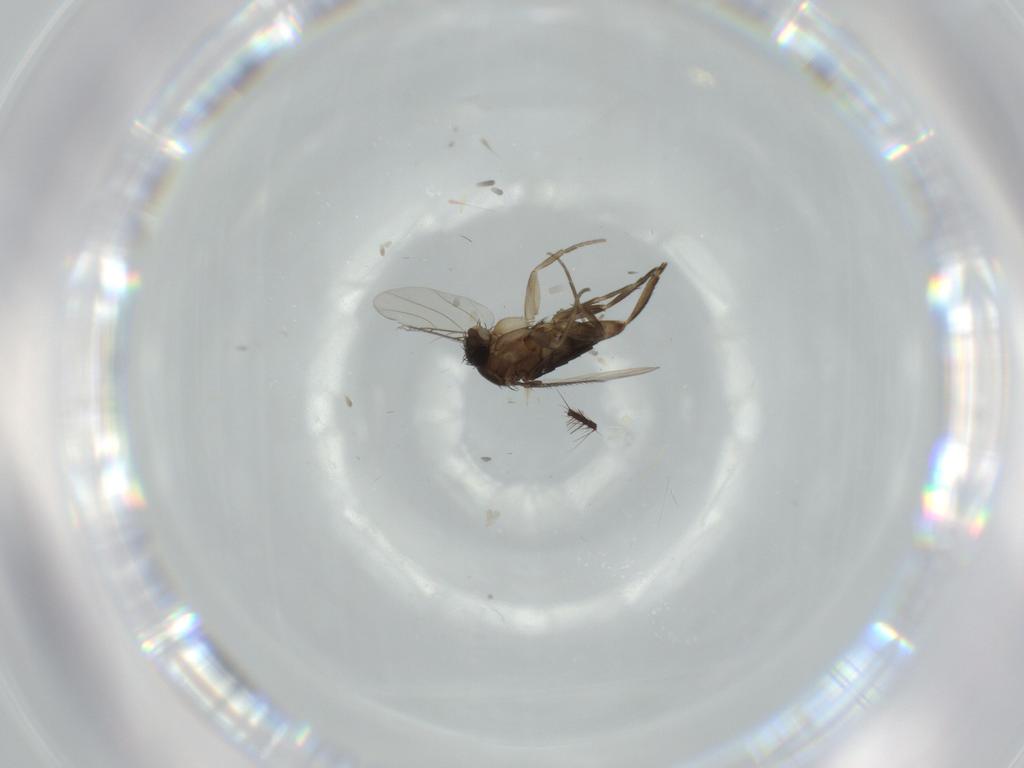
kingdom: Animalia
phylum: Arthropoda
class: Insecta
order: Diptera
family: Phoridae
